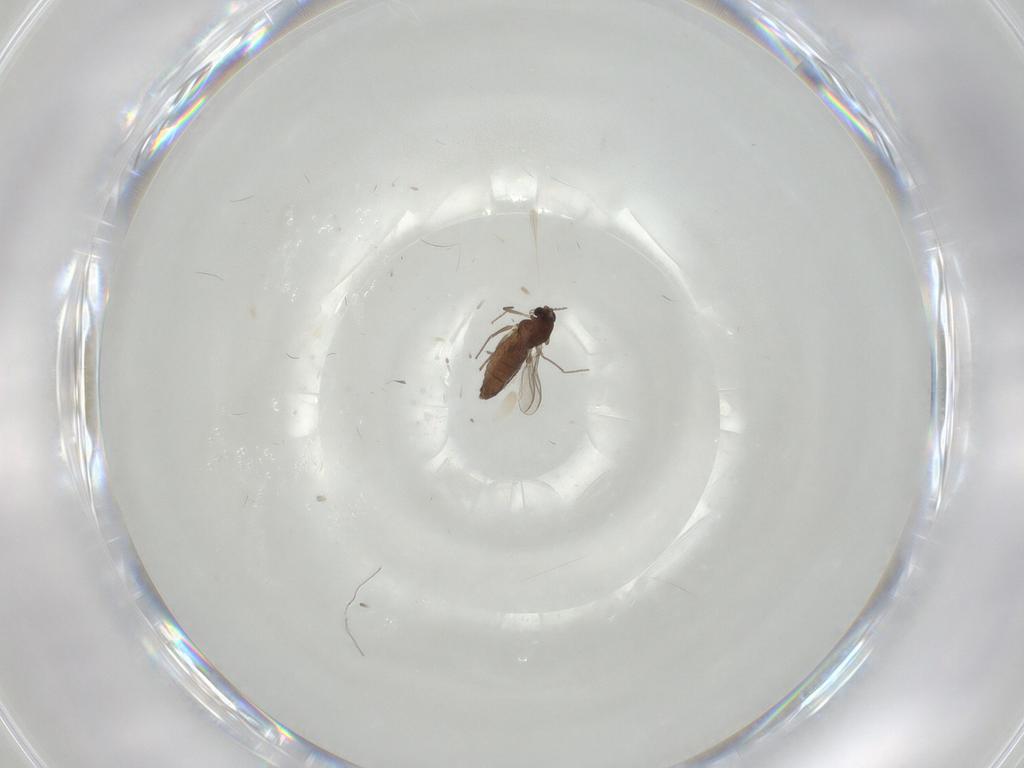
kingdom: Animalia
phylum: Arthropoda
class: Insecta
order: Diptera
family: Chironomidae
